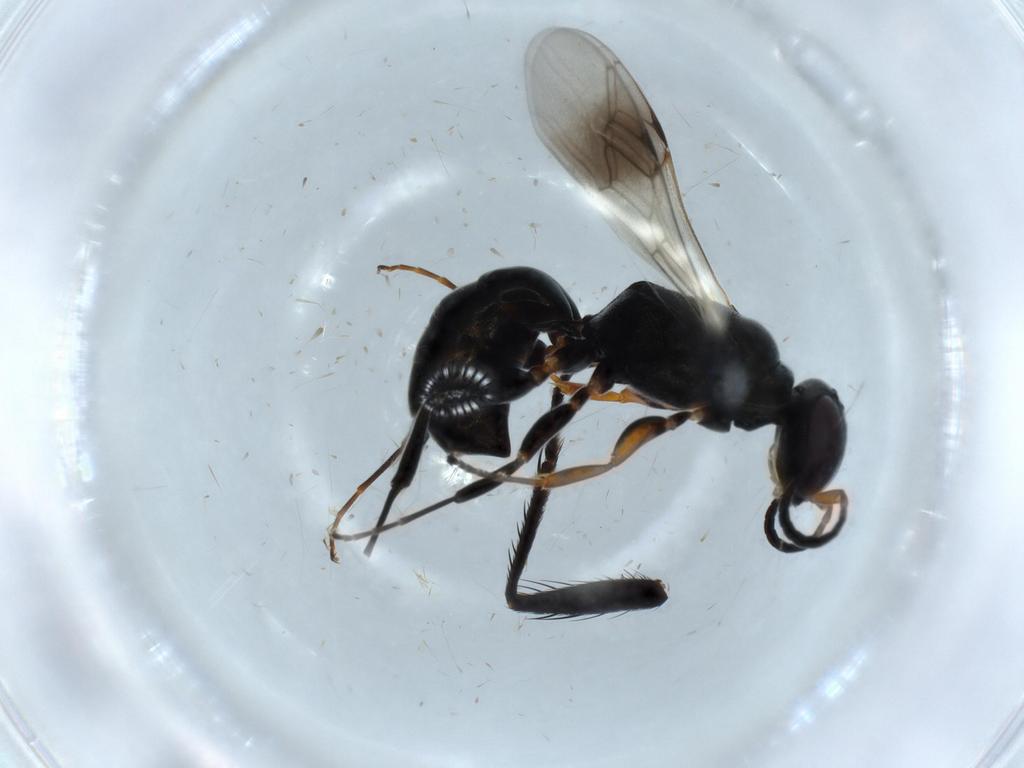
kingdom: Animalia
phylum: Arthropoda
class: Insecta
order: Hymenoptera
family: Crabronidae
